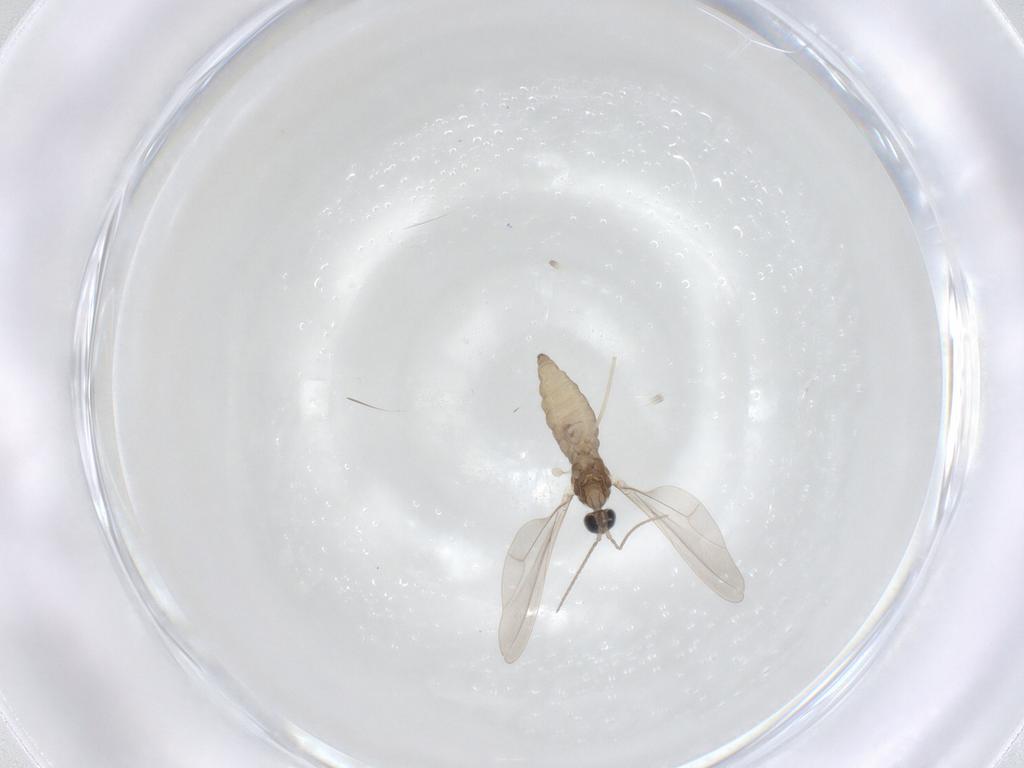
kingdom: Animalia
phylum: Arthropoda
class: Insecta
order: Diptera
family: Cecidomyiidae
